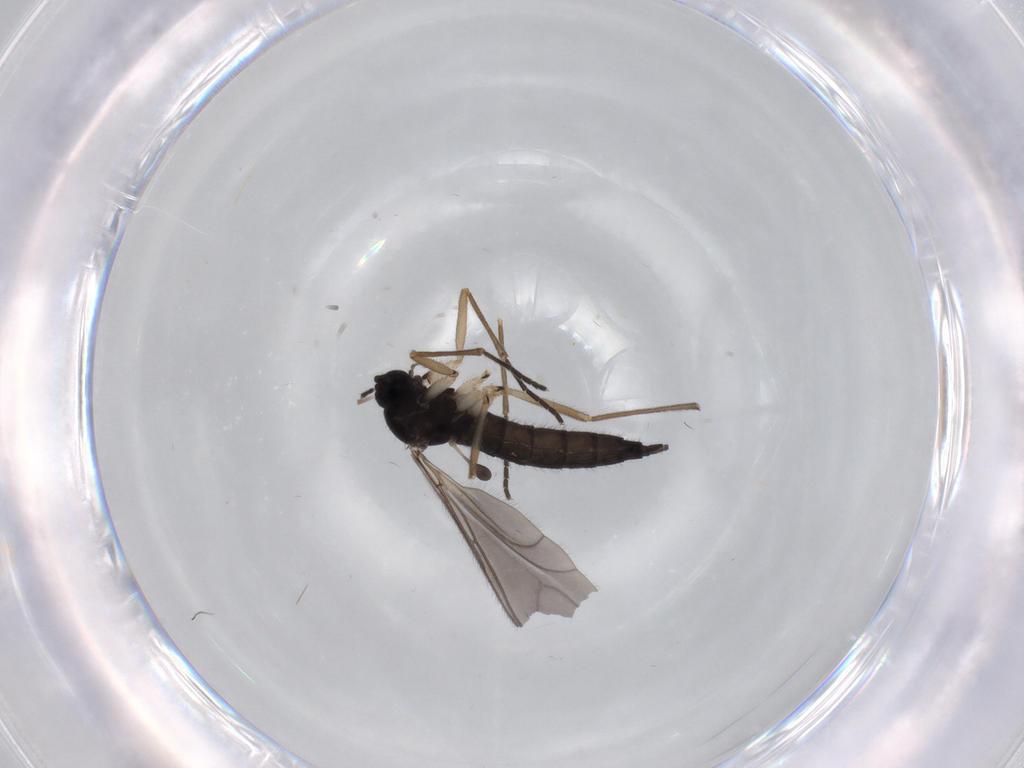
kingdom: Animalia
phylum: Arthropoda
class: Insecta
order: Diptera
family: Sciaridae
